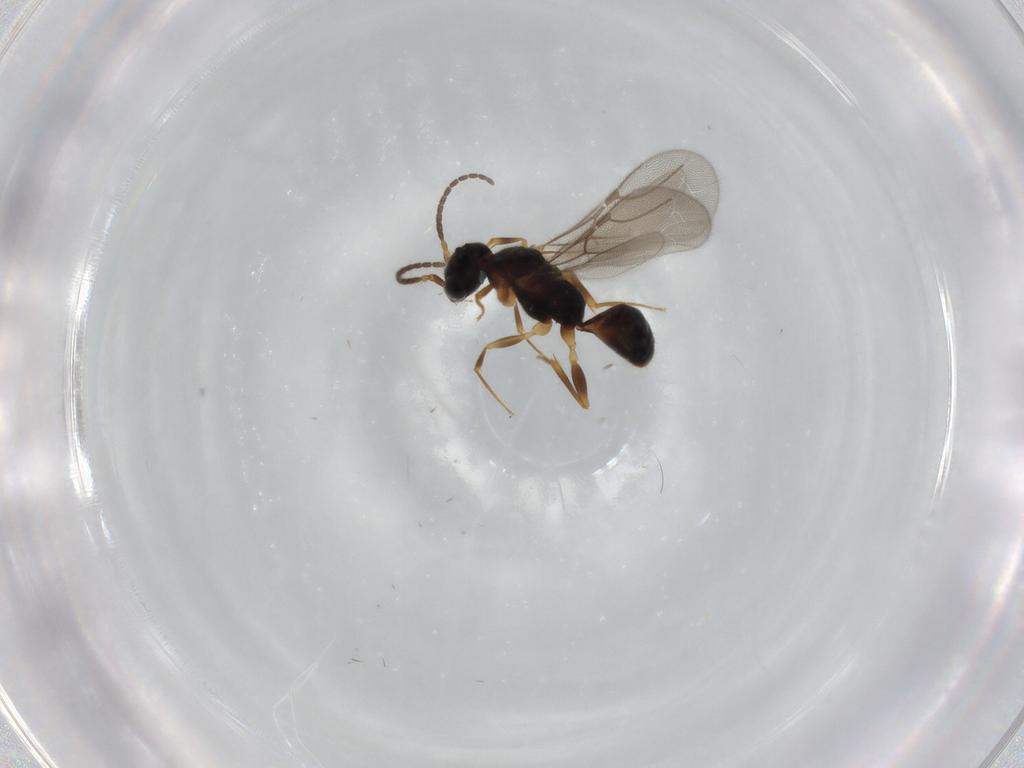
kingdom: Animalia
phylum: Arthropoda
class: Insecta
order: Hymenoptera
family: Bethylidae
